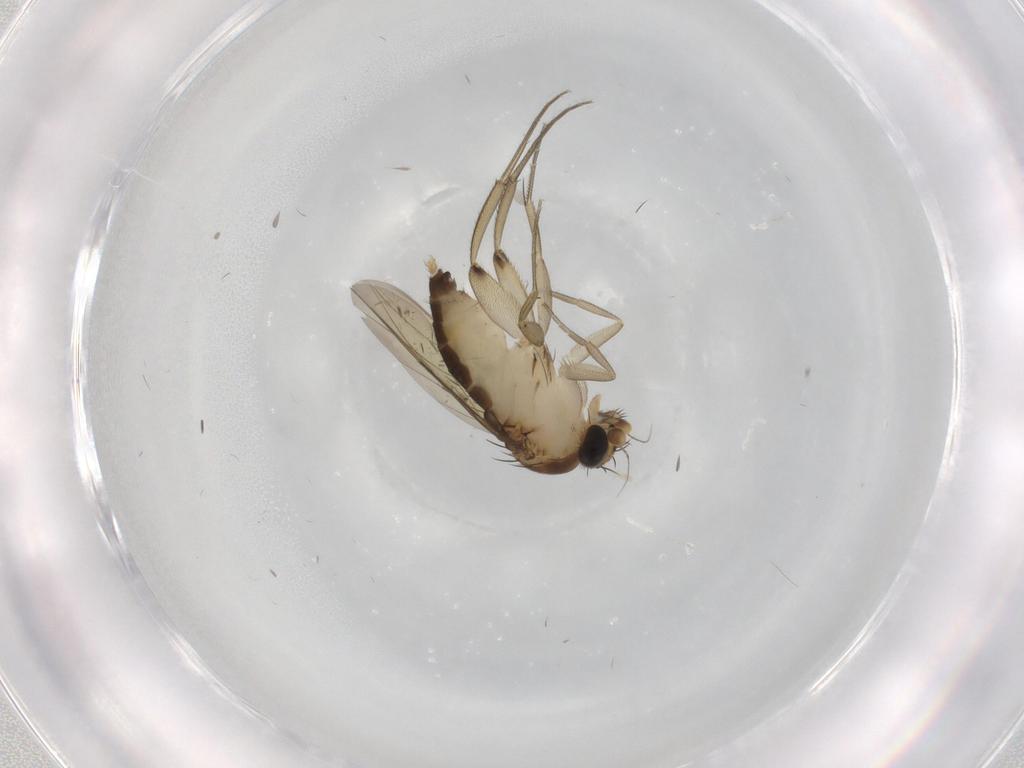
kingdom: Animalia
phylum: Arthropoda
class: Insecta
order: Diptera
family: Phoridae
